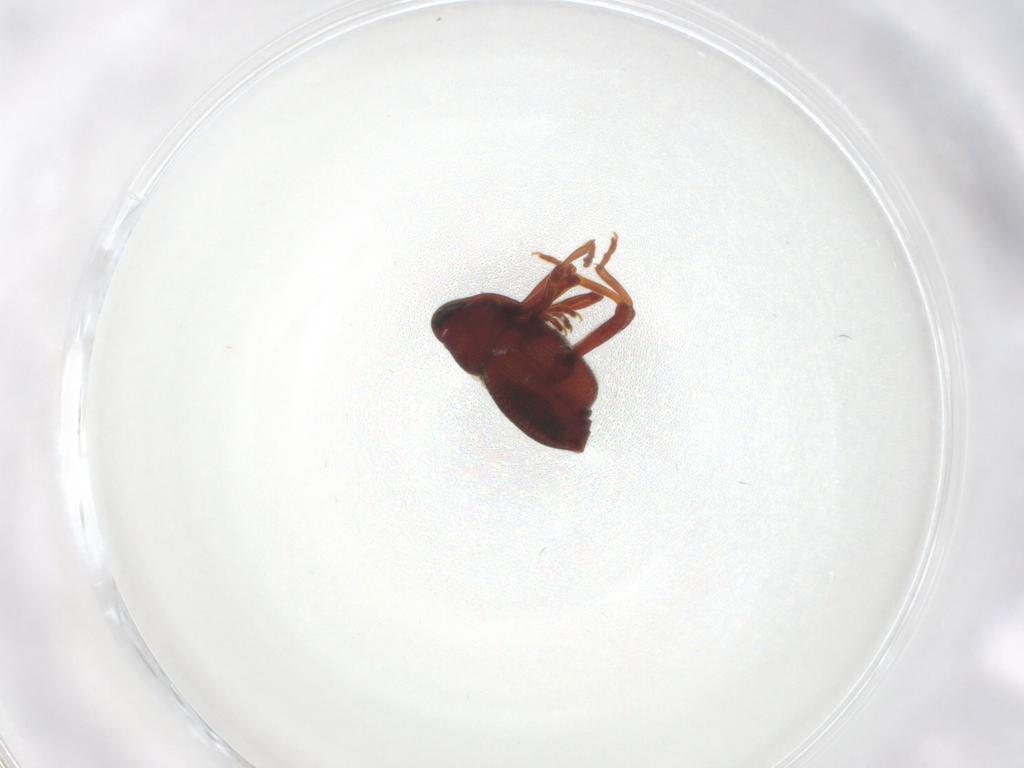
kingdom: Animalia
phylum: Arthropoda
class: Insecta
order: Coleoptera
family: Curculionidae
